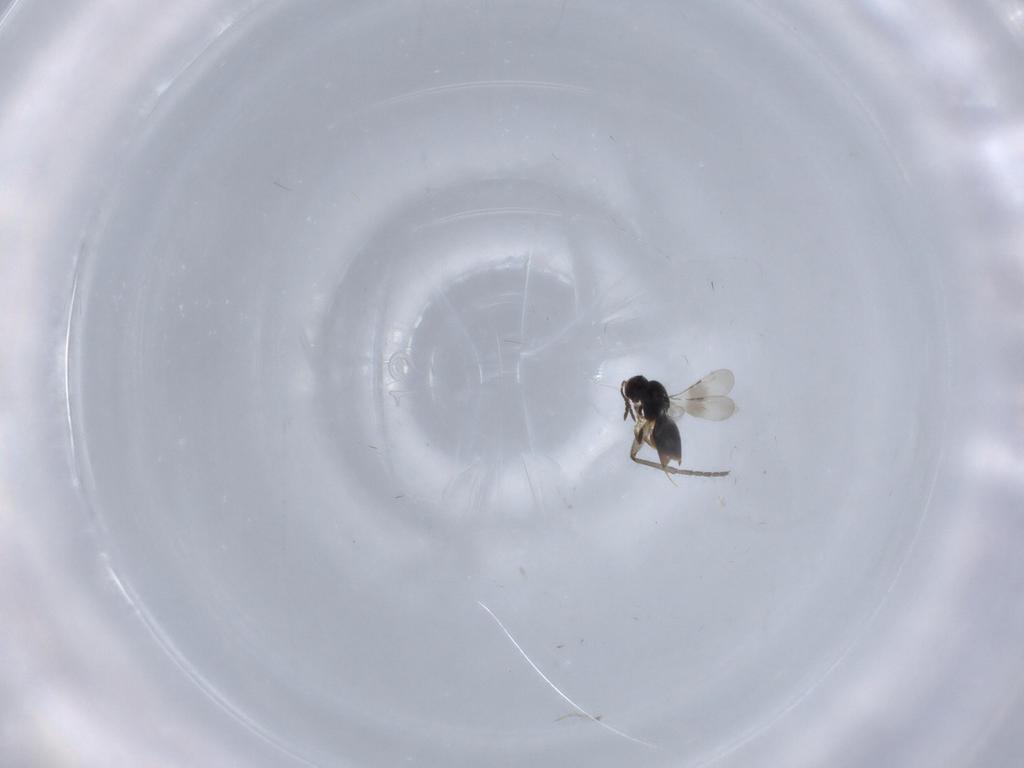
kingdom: Animalia
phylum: Arthropoda
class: Insecta
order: Hymenoptera
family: Ceraphronidae
